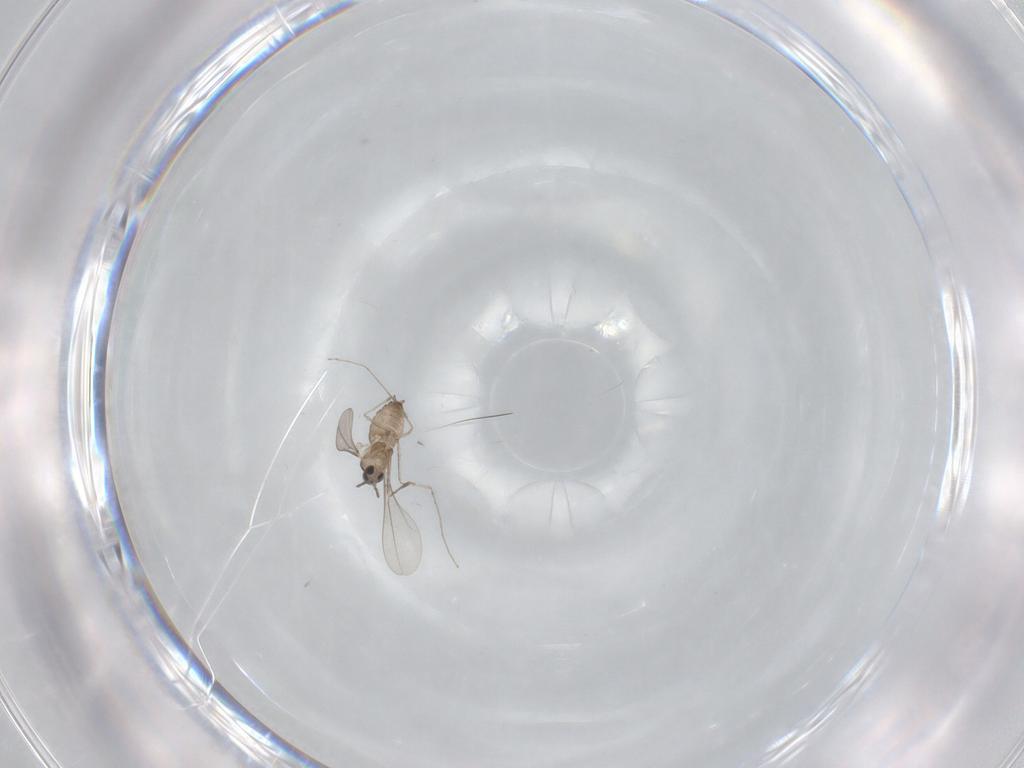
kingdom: Animalia
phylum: Arthropoda
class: Insecta
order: Diptera
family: Cecidomyiidae
